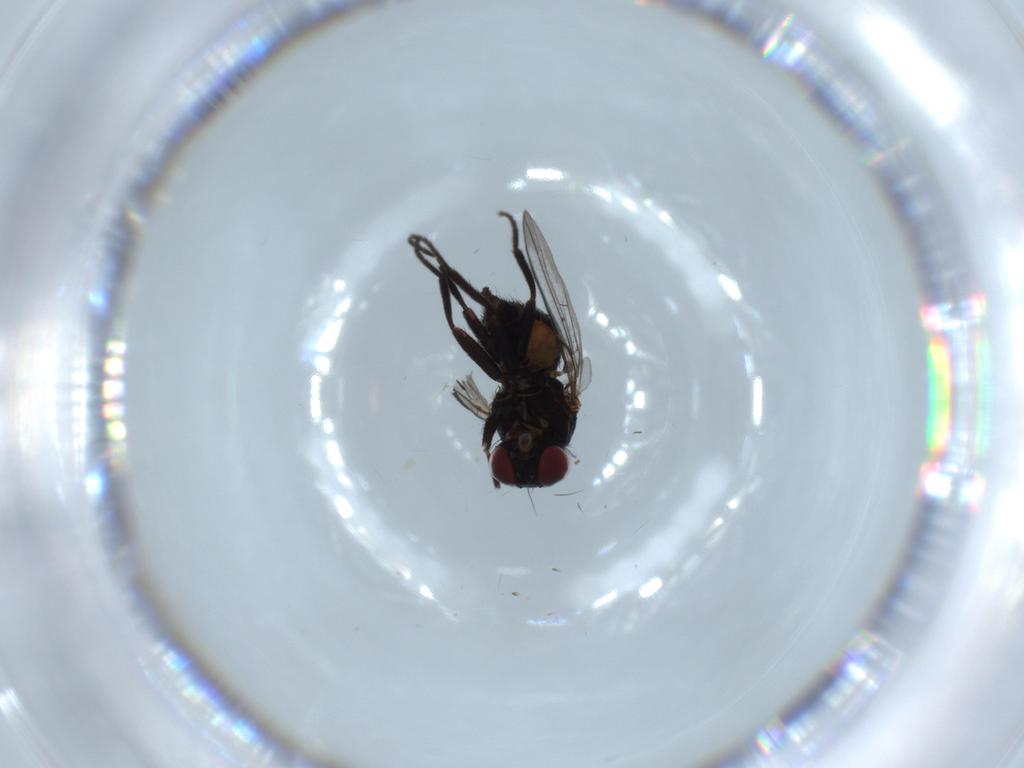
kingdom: Animalia
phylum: Arthropoda
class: Insecta
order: Diptera
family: Agromyzidae
